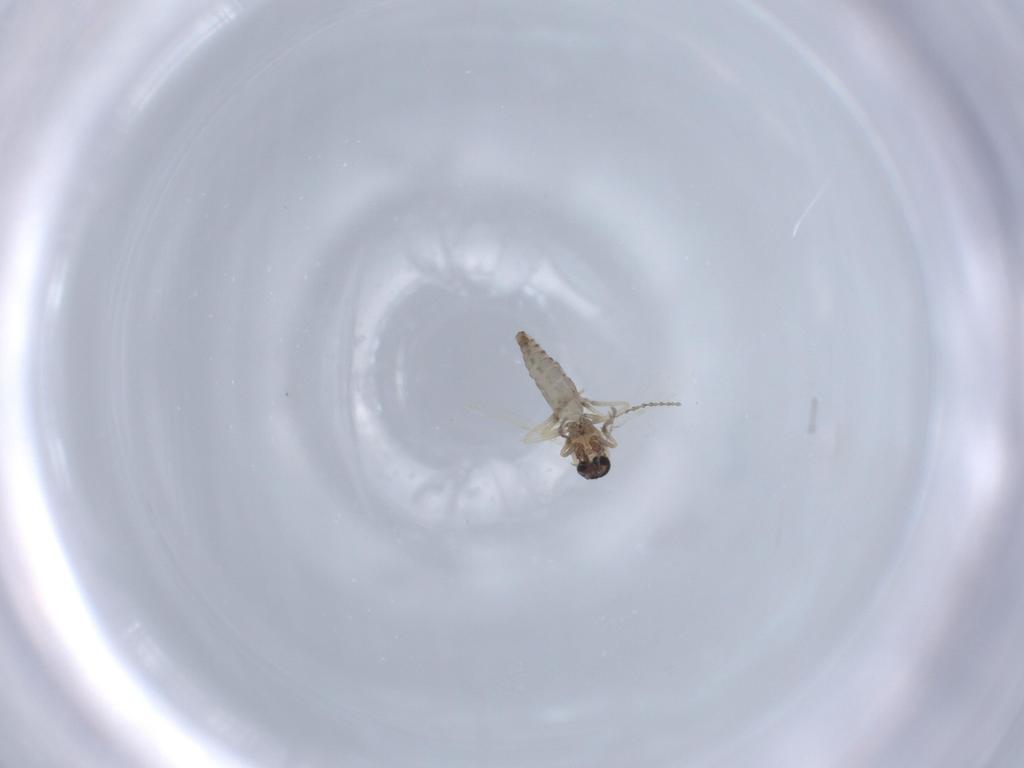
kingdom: Animalia
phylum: Arthropoda
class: Insecta
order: Diptera
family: Ceratopogonidae
